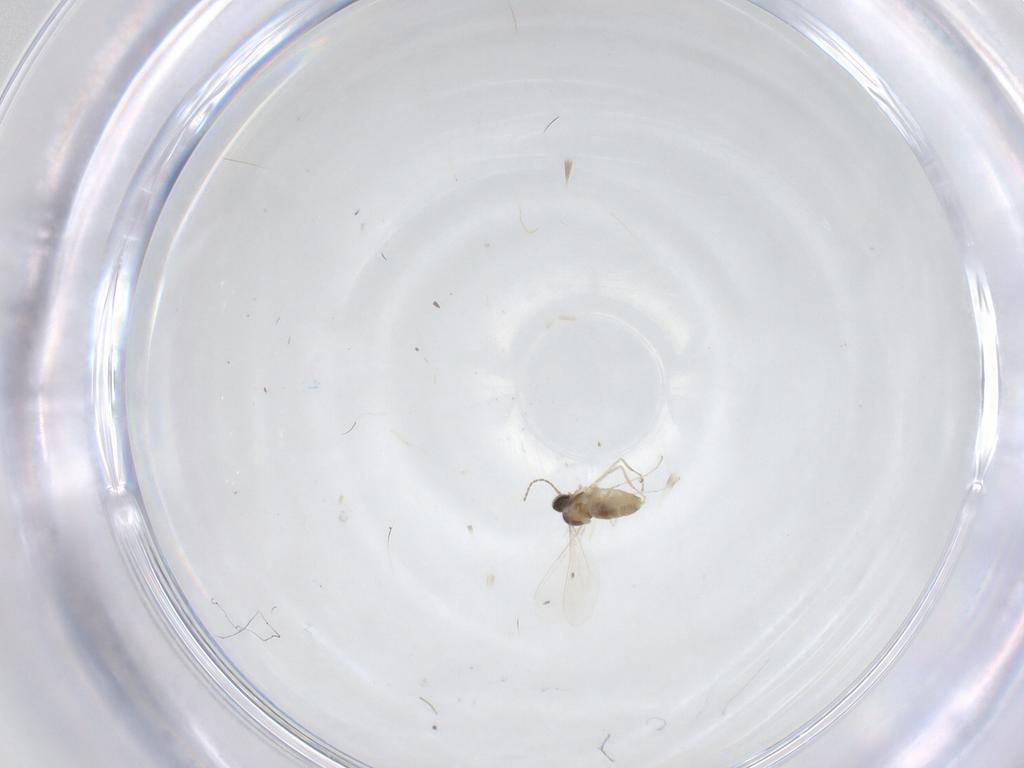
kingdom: Animalia
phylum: Arthropoda
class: Insecta
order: Diptera
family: Cecidomyiidae
